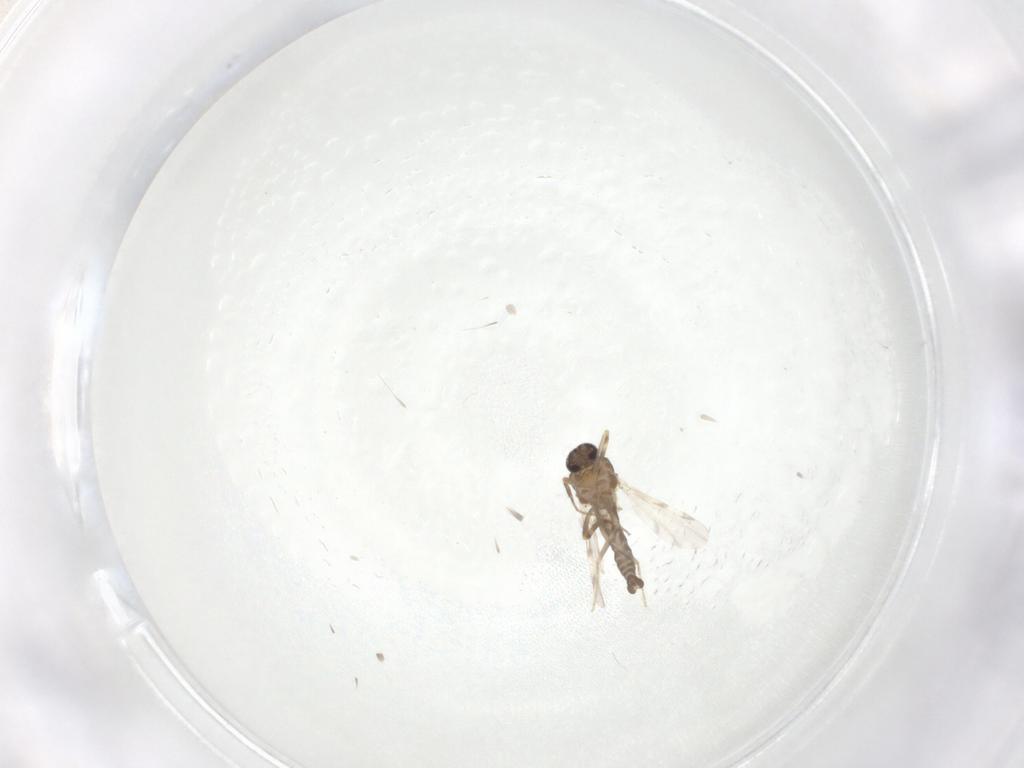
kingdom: Animalia
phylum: Arthropoda
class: Insecta
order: Diptera
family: Ceratopogonidae
